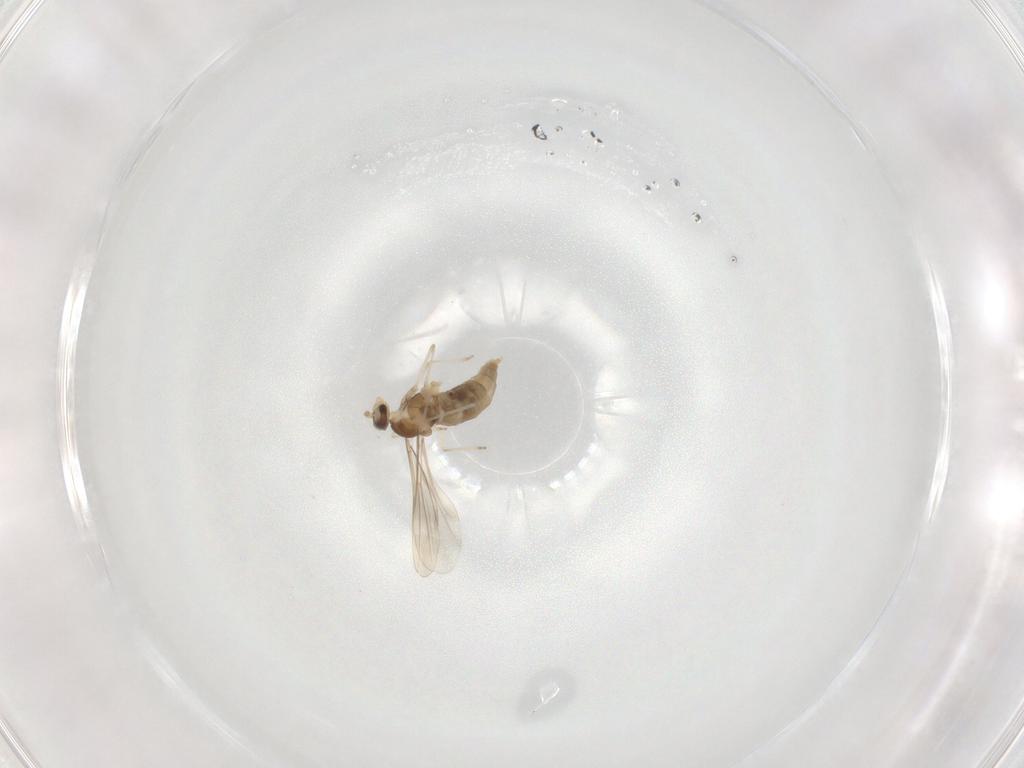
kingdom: Animalia
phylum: Arthropoda
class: Insecta
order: Diptera
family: Cecidomyiidae
